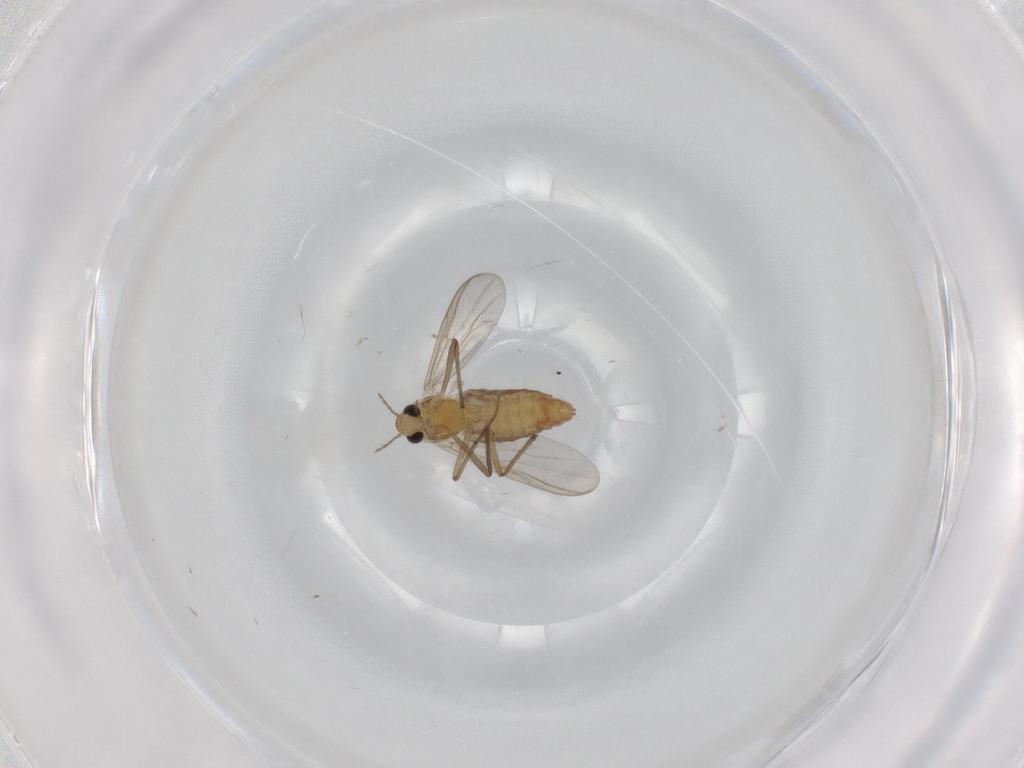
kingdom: Animalia
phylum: Arthropoda
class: Insecta
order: Diptera
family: Chironomidae
